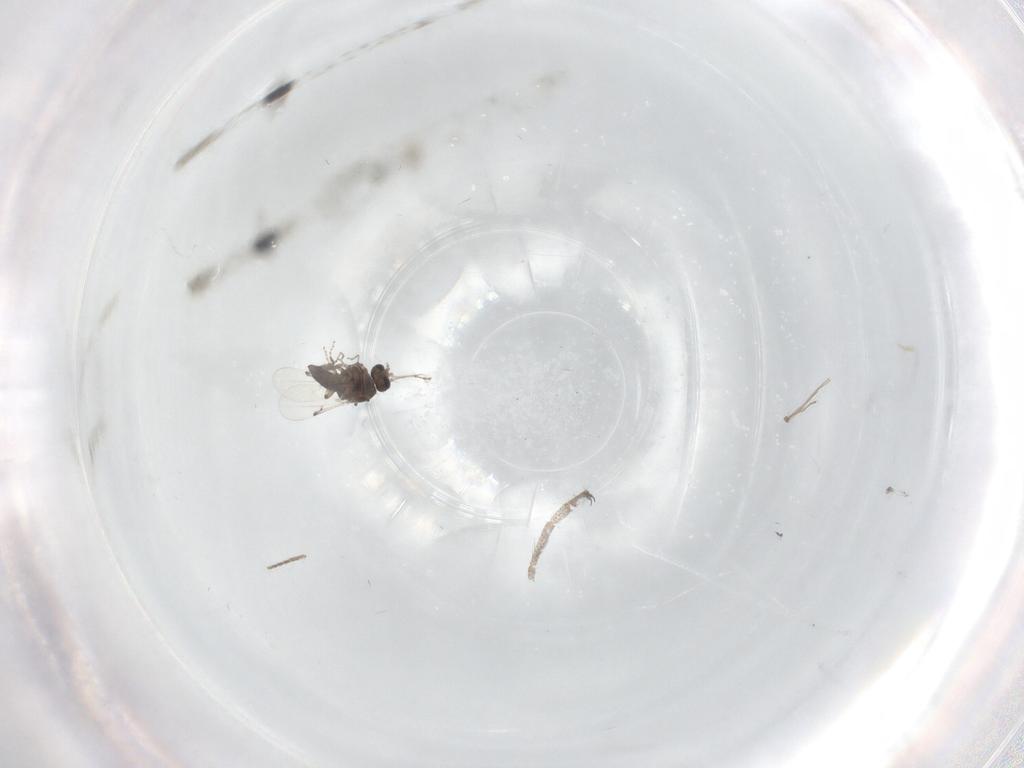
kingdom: Animalia
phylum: Arthropoda
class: Insecta
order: Diptera
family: Ceratopogonidae
